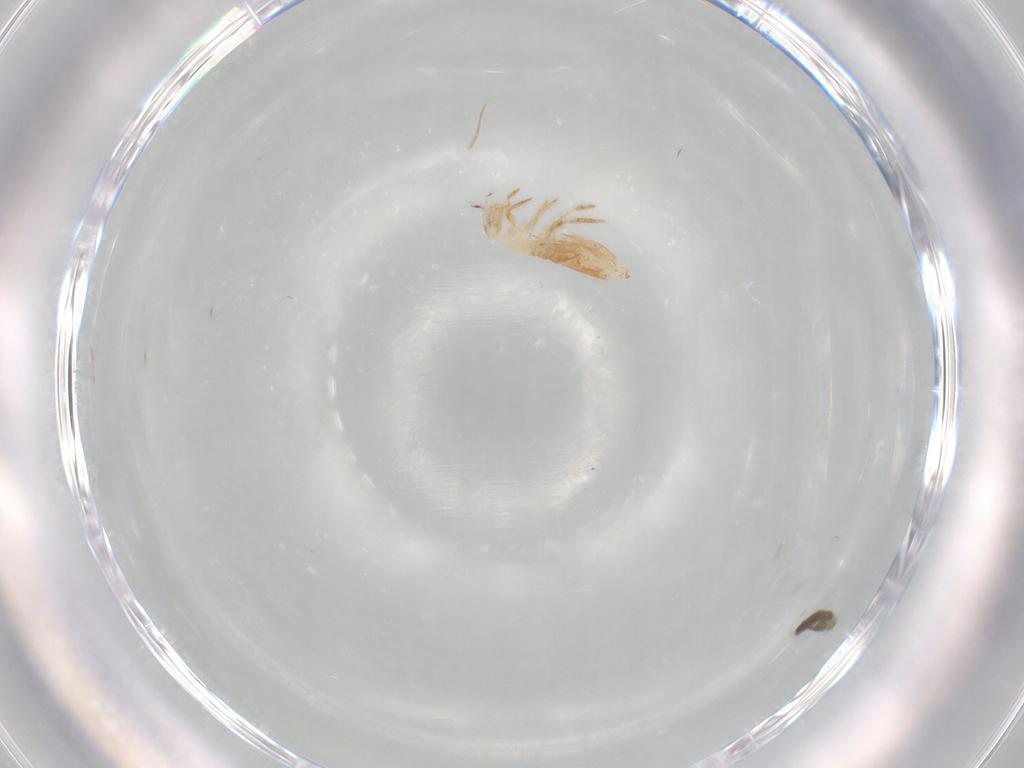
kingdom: Animalia
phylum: Arthropoda
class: Collembola
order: Entomobryomorpha
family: Entomobryidae
